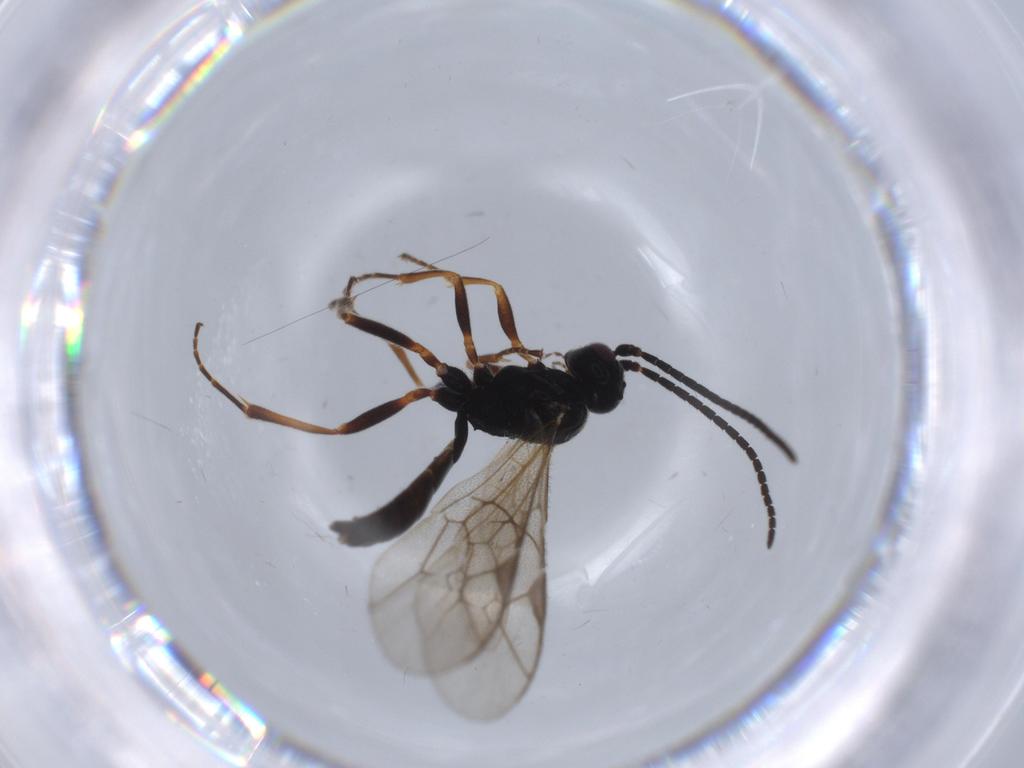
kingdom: Animalia
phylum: Arthropoda
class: Insecta
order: Hymenoptera
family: Ichneumonidae
